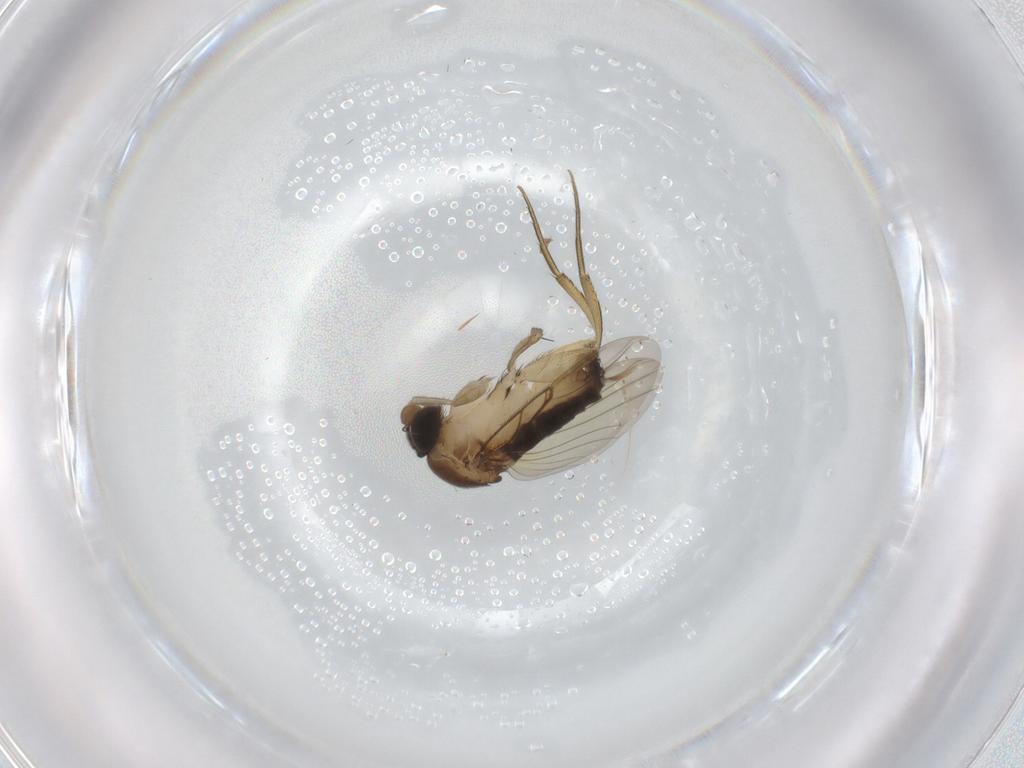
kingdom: Animalia
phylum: Arthropoda
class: Insecta
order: Diptera
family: Phoridae
